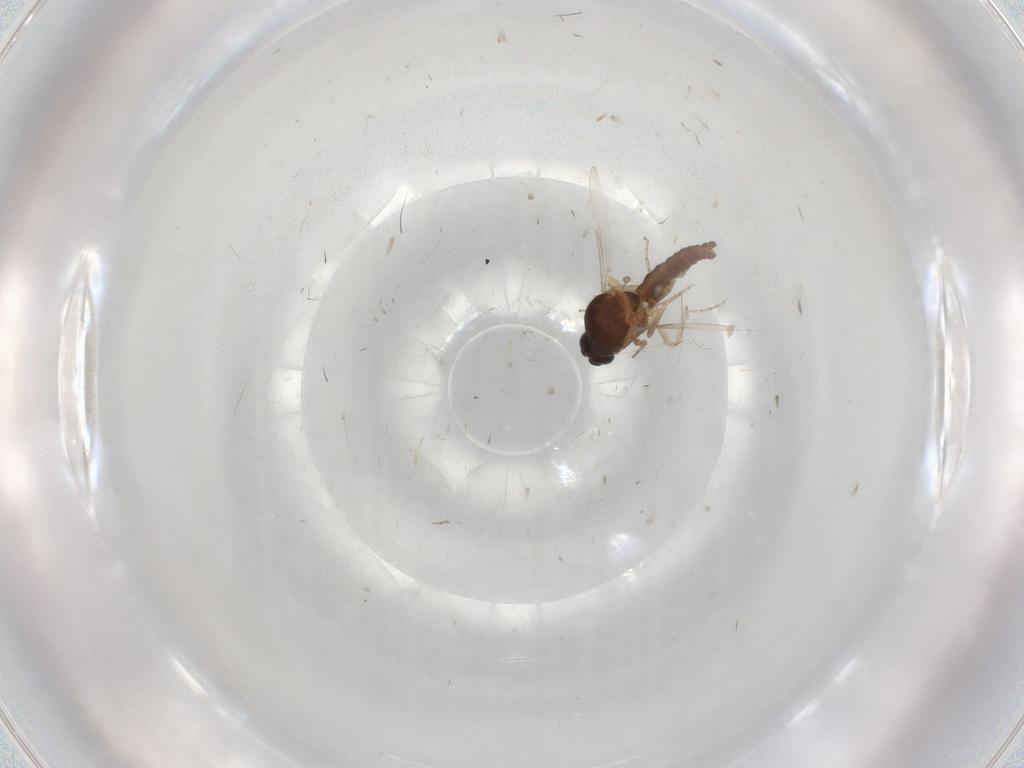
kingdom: Animalia
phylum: Arthropoda
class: Insecta
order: Diptera
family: Ceratopogonidae
